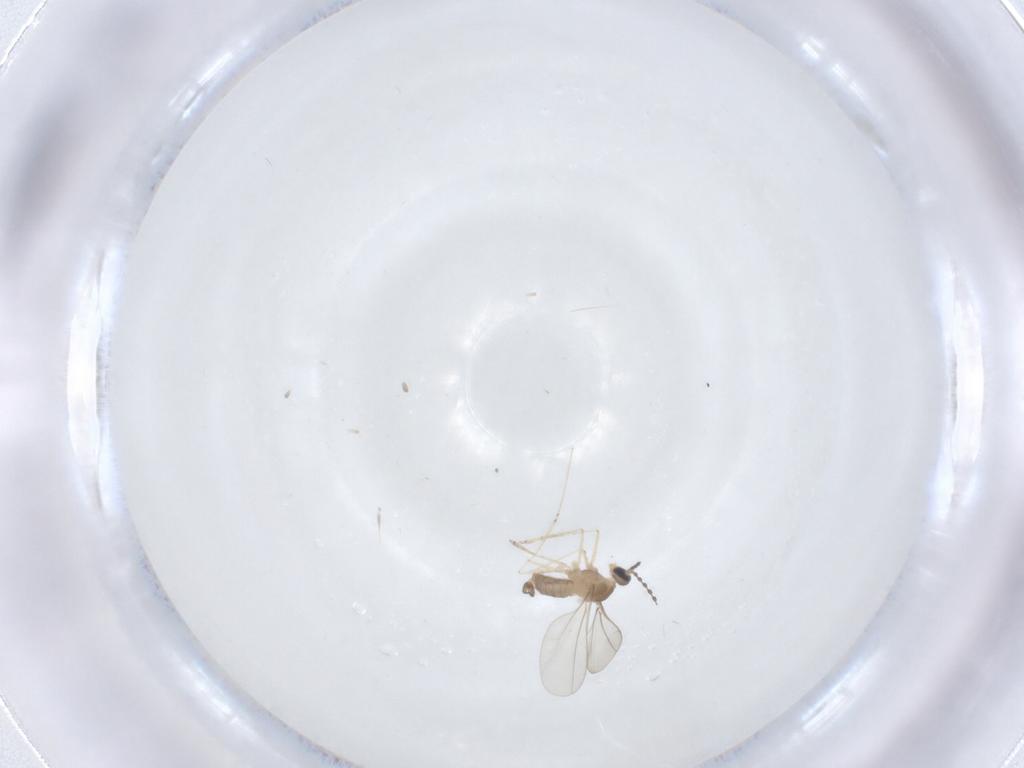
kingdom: Animalia
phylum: Arthropoda
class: Insecta
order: Diptera
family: Cecidomyiidae
